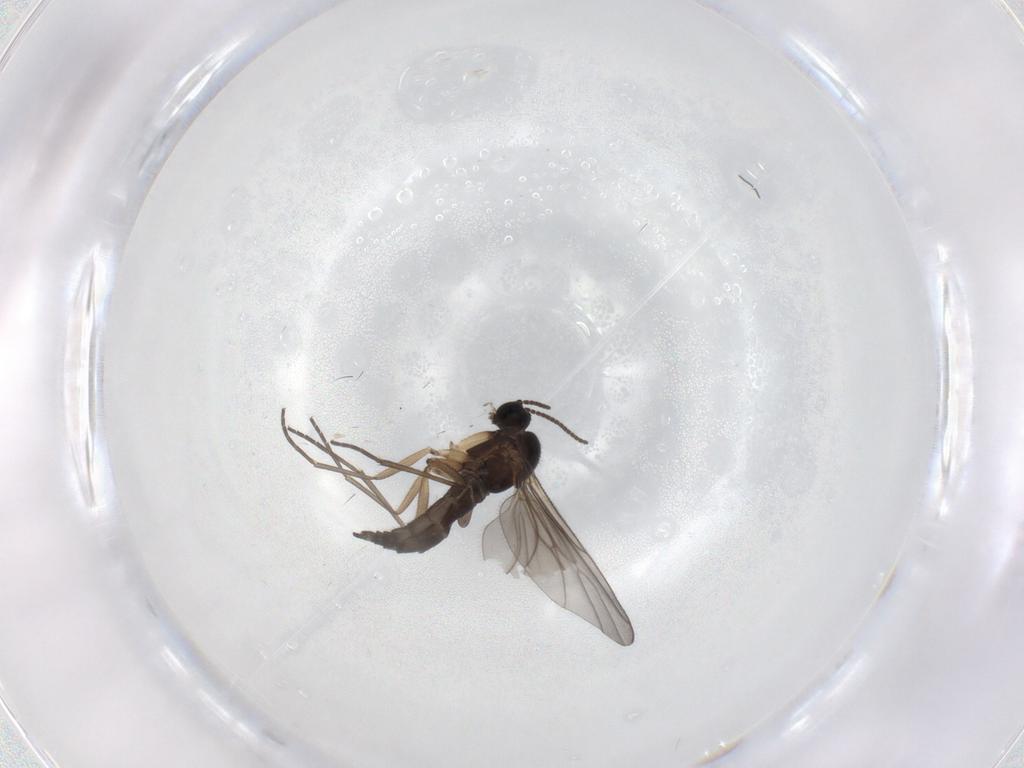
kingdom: Animalia
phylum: Arthropoda
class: Insecta
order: Diptera
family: Sciaridae
